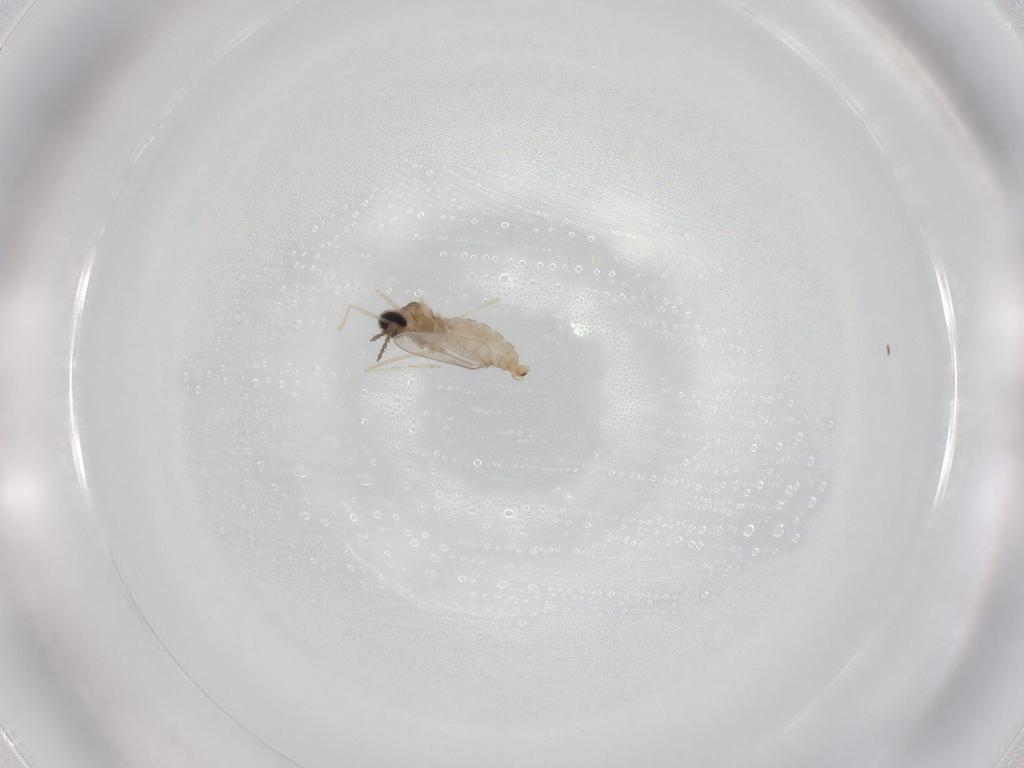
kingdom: Animalia
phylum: Arthropoda
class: Insecta
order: Diptera
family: Cecidomyiidae
